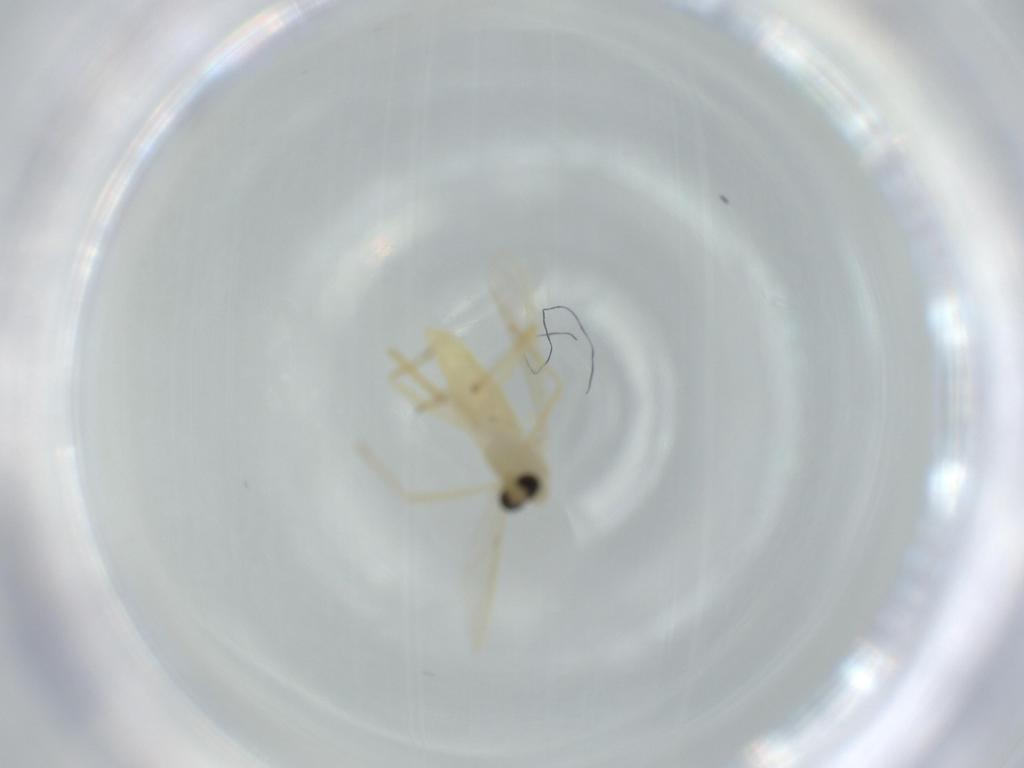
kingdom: Animalia
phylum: Arthropoda
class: Insecta
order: Diptera
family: Chironomidae
